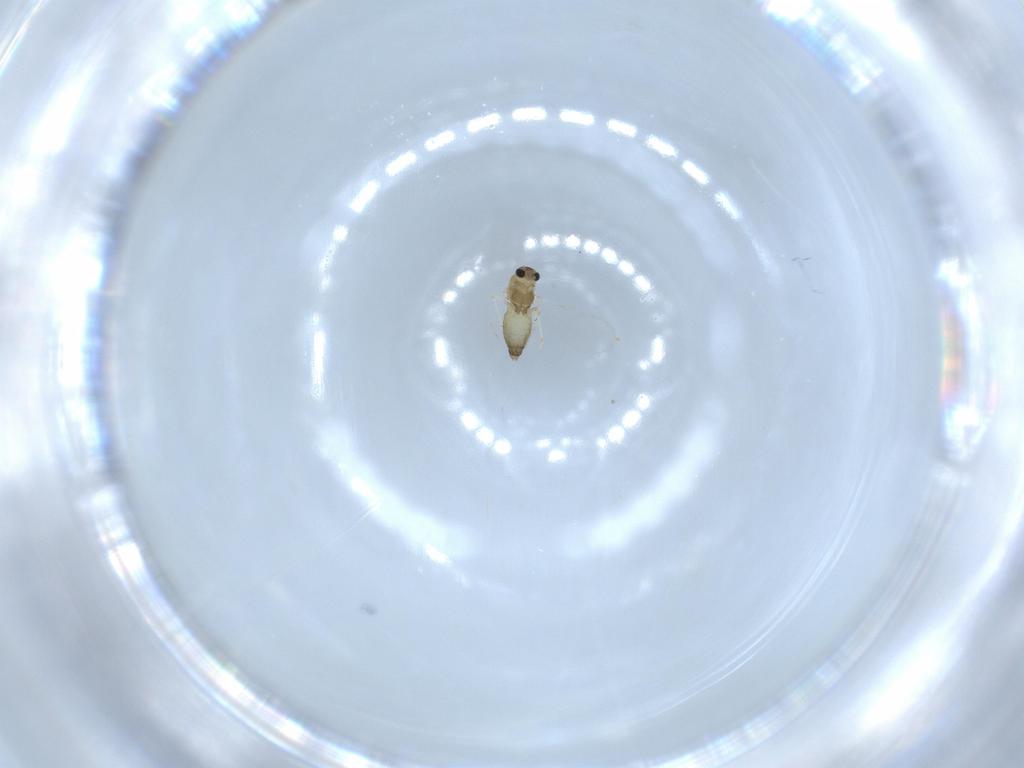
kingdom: Animalia
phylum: Arthropoda
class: Insecta
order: Diptera
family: Chironomidae
